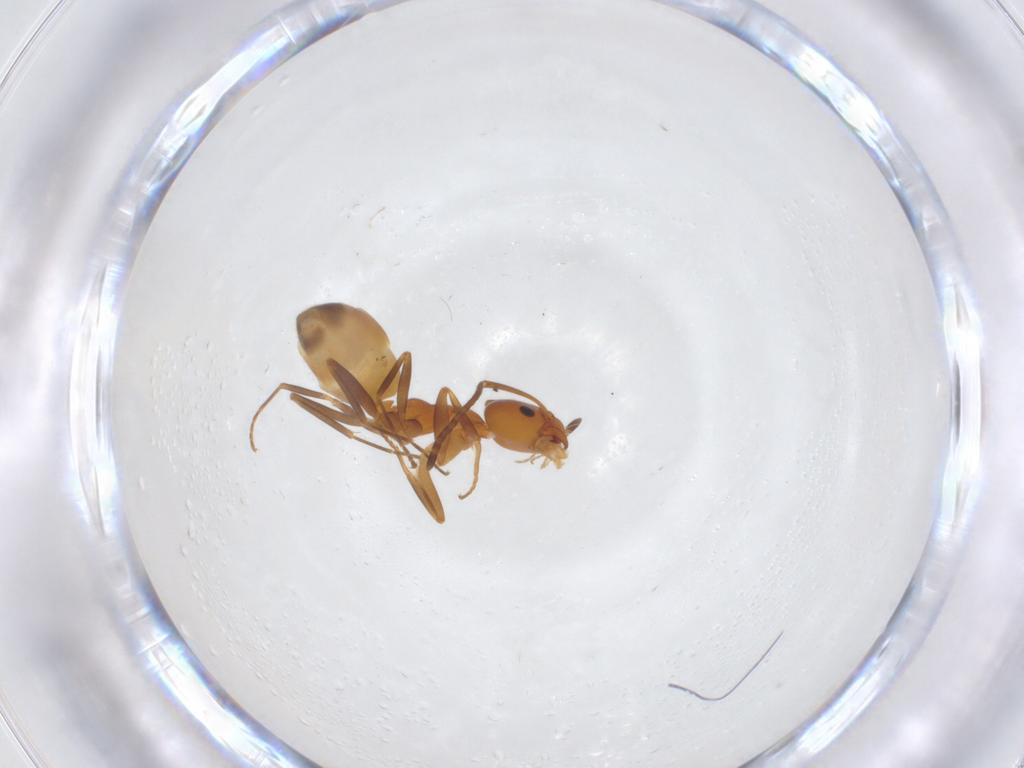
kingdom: Animalia
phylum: Arthropoda
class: Insecta
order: Hymenoptera
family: Formicidae
